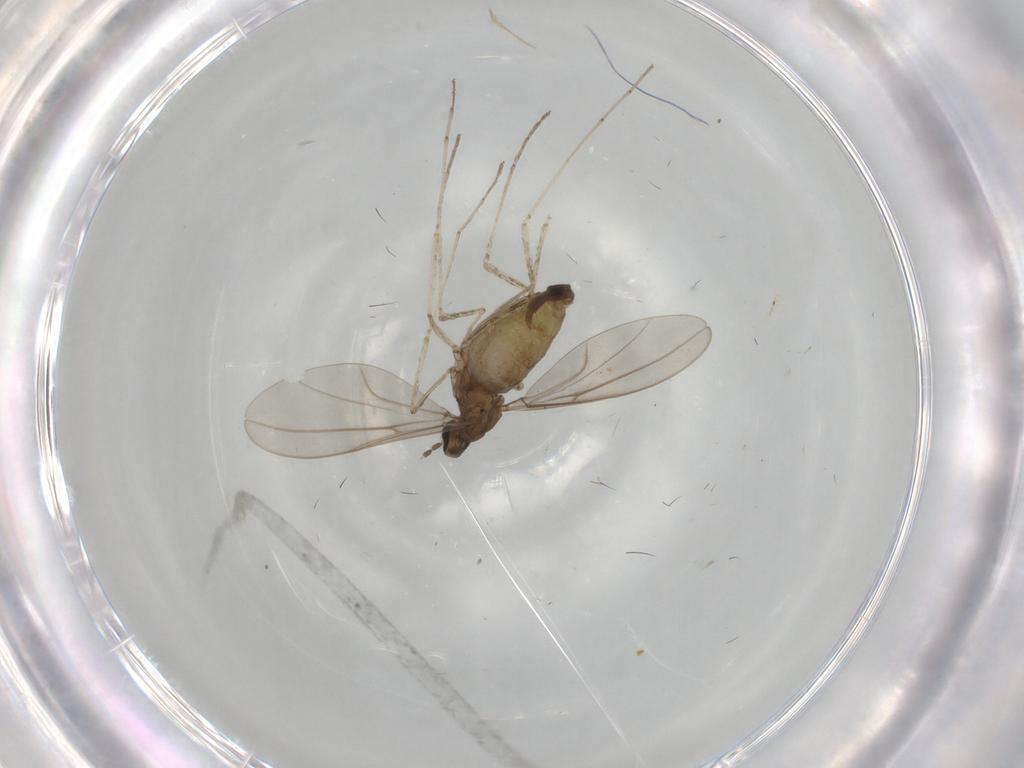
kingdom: Animalia
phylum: Arthropoda
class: Insecta
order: Diptera
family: Cecidomyiidae
